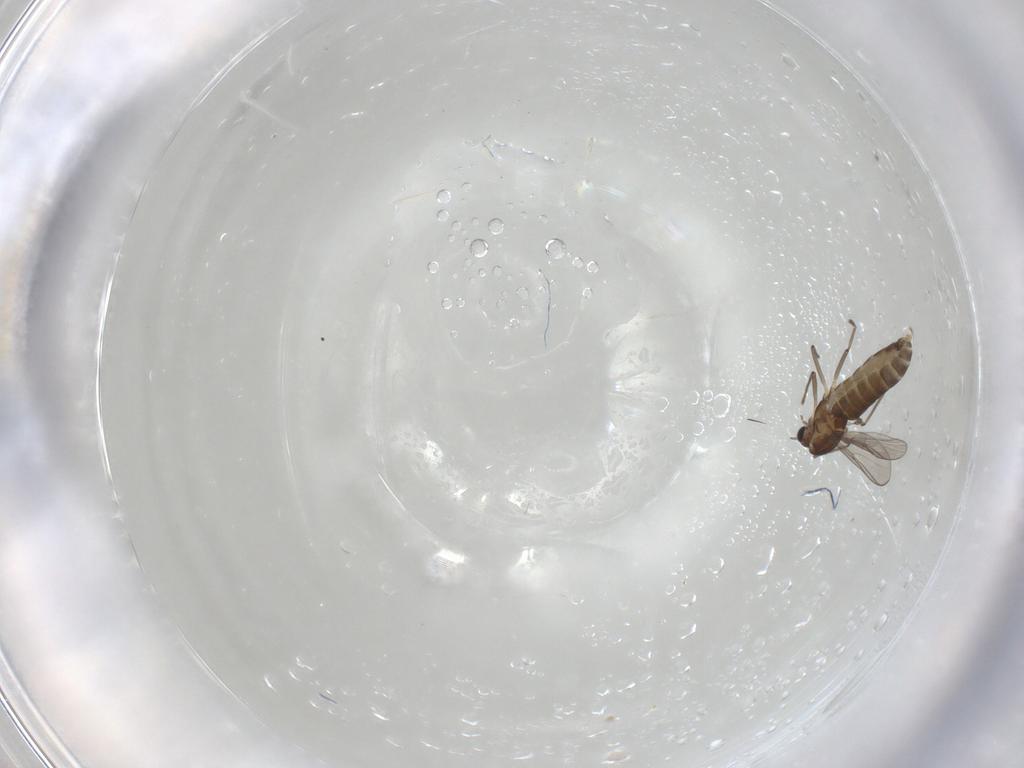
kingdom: Animalia
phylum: Arthropoda
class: Insecta
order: Diptera
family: Chironomidae
